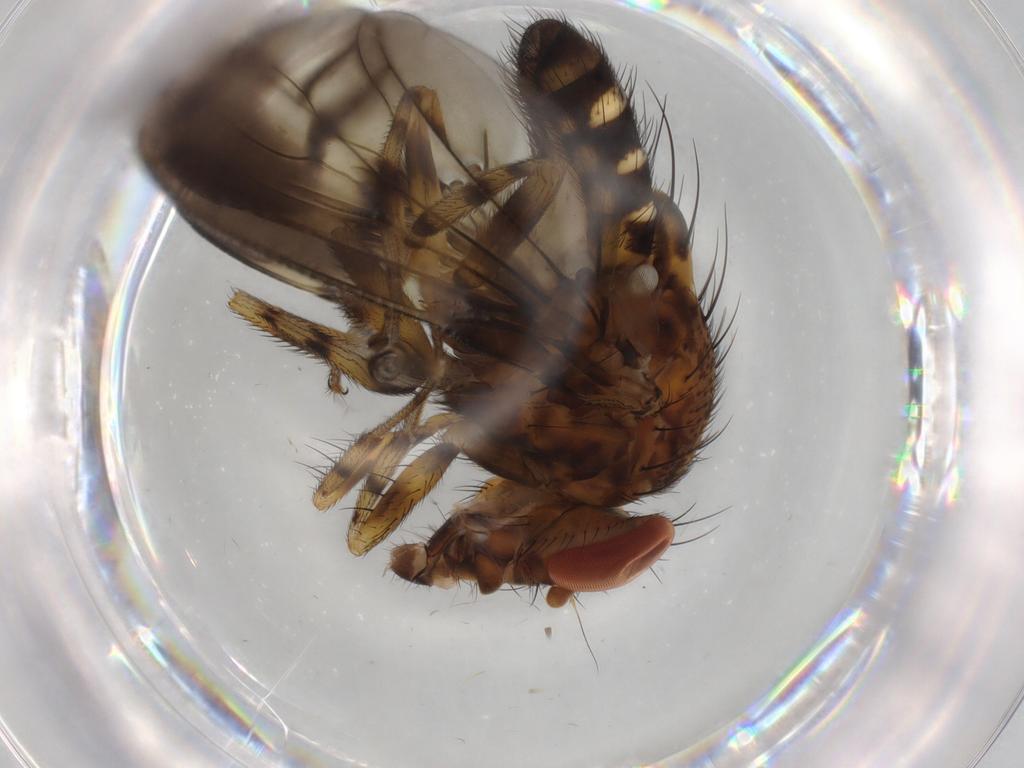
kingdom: Animalia
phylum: Arthropoda
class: Insecta
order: Diptera
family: Drosophilidae
